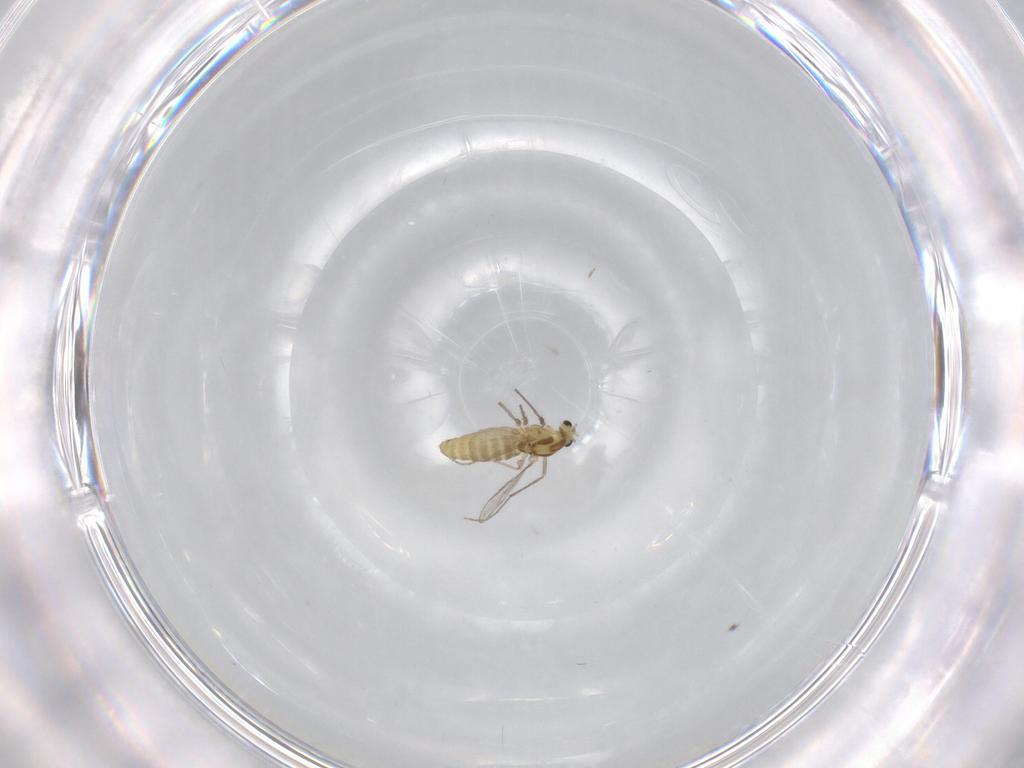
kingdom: Animalia
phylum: Arthropoda
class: Insecta
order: Diptera
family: Chironomidae
